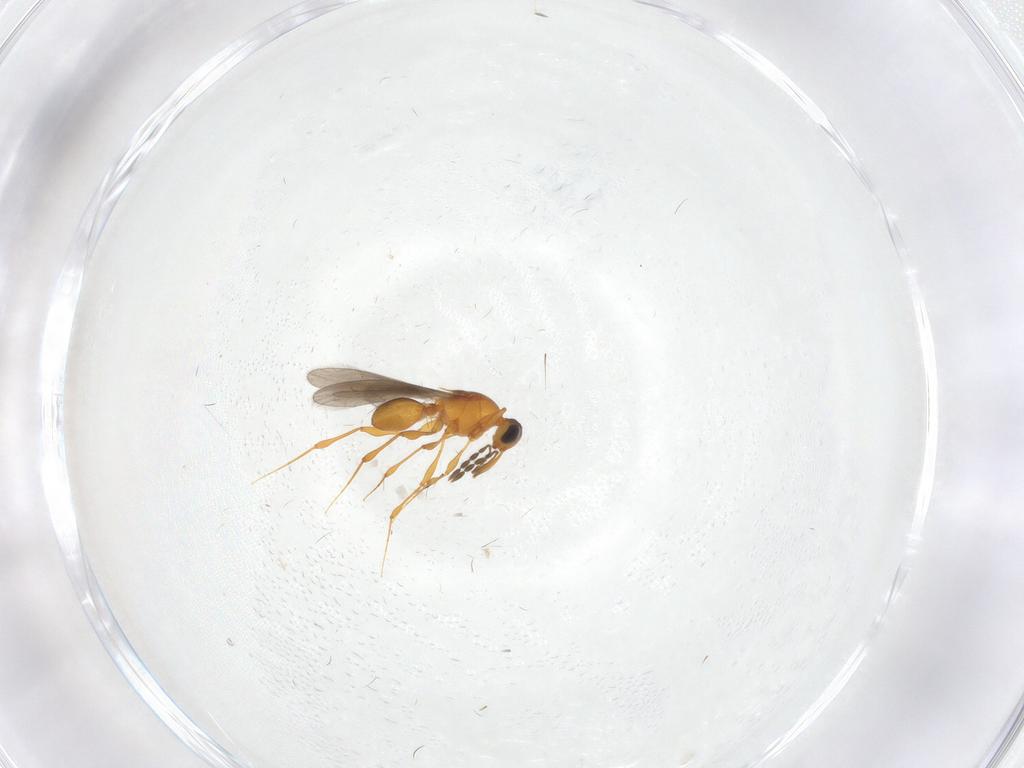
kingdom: Animalia
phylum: Arthropoda
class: Insecta
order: Hymenoptera
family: Platygastridae
